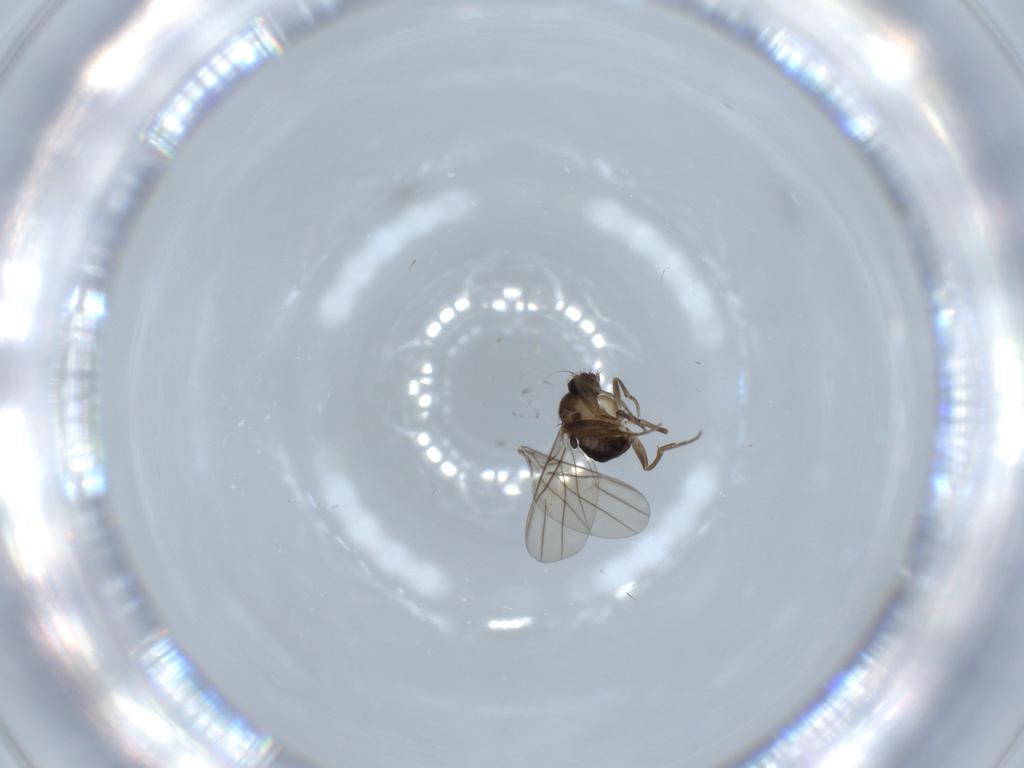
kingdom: Animalia
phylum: Arthropoda
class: Insecta
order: Diptera
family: Phoridae
